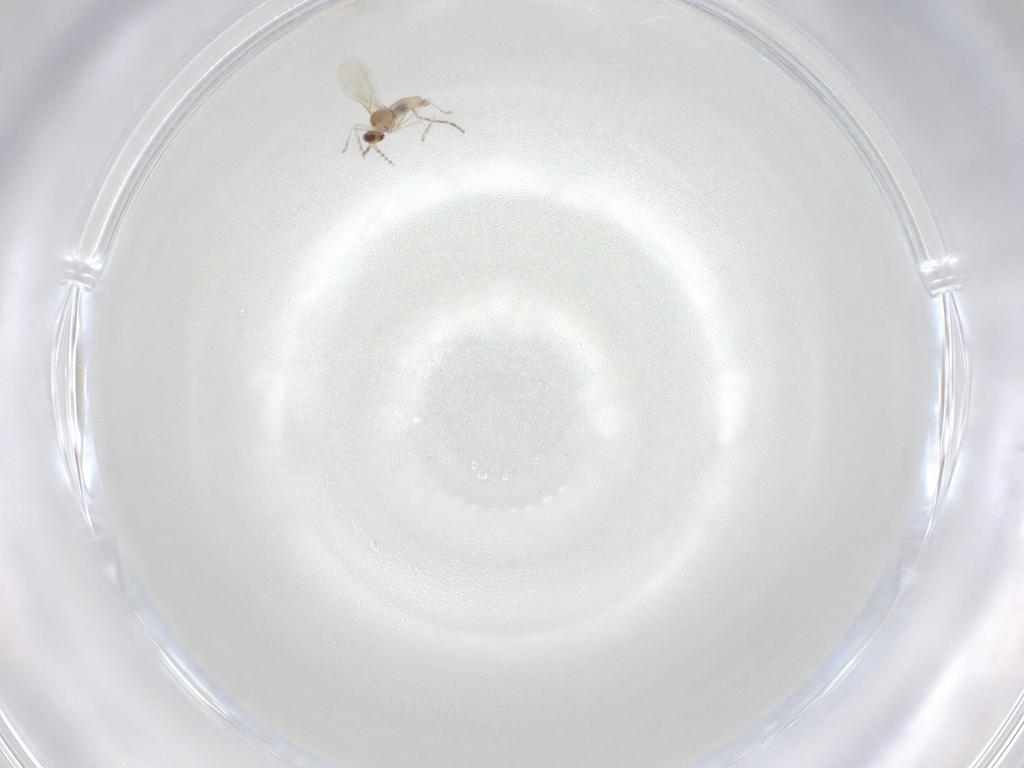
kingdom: Animalia
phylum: Arthropoda
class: Insecta
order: Diptera
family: Cecidomyiidae
